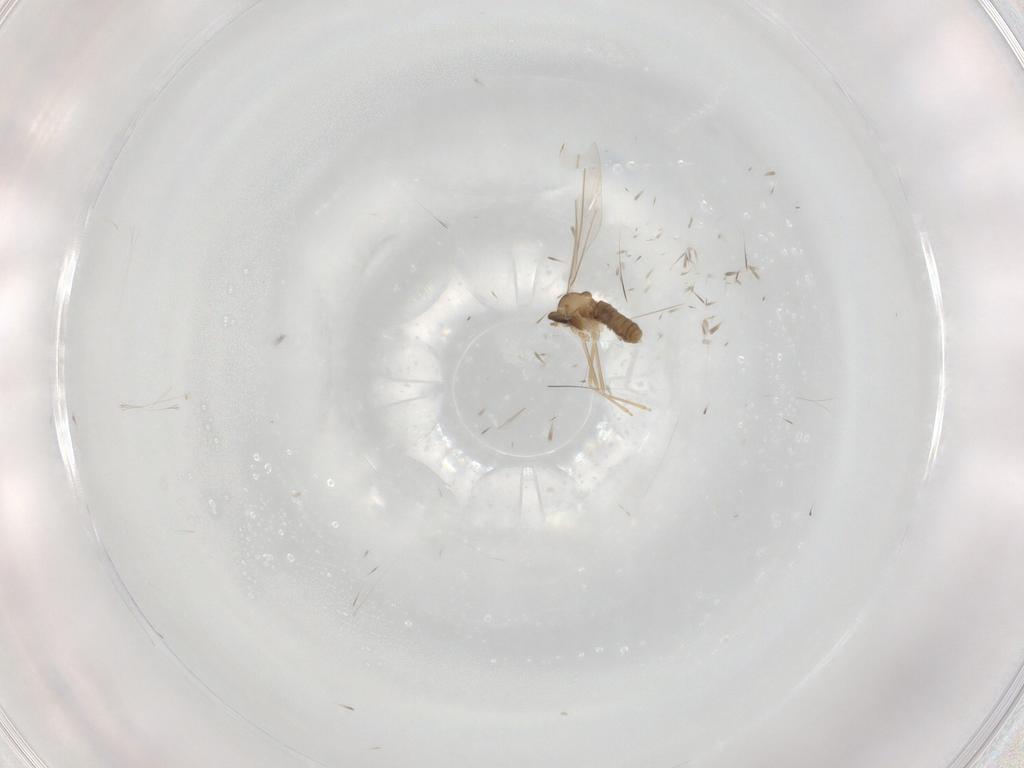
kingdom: Animalia
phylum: Arthropoda
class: Insecta
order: Diptera
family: Cecidomyiidae
